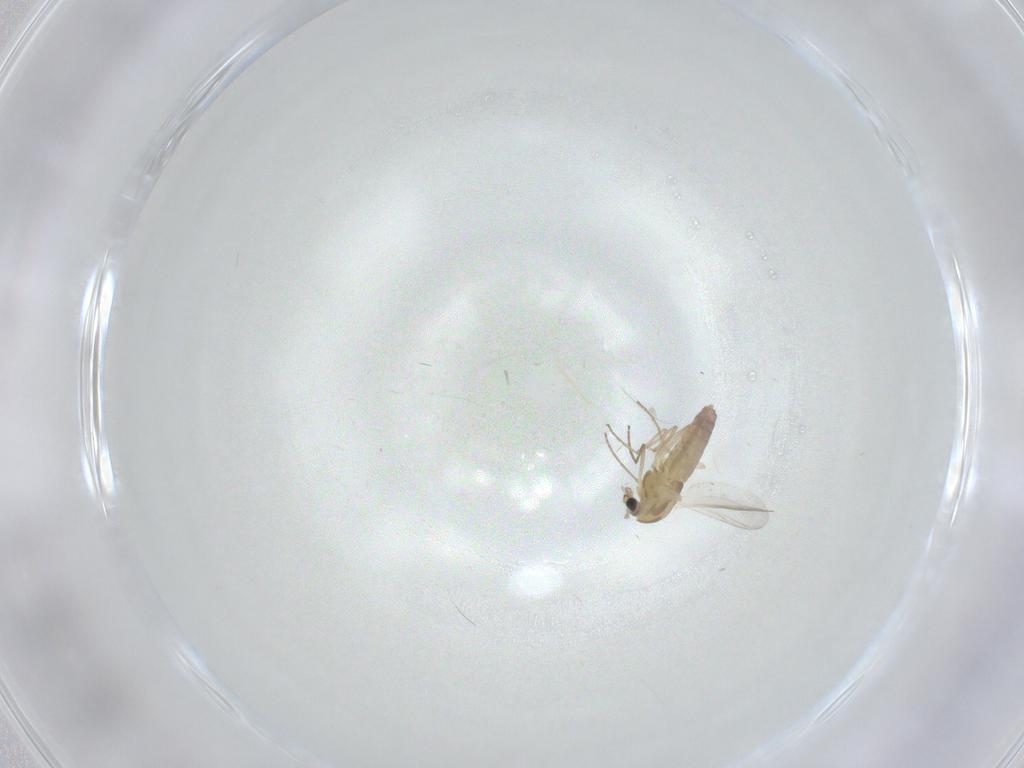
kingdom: Animalia
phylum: Arthropoda
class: Insecta
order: Diptera
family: Chironomidae
